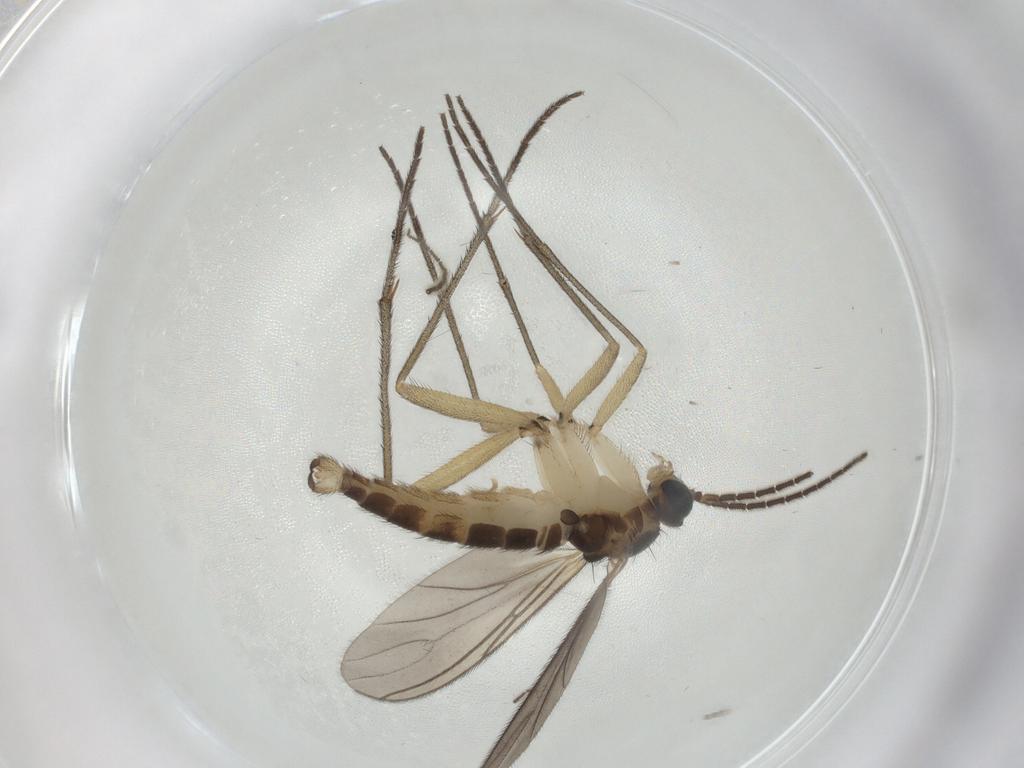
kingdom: Animalia
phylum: Arthropoda
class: Insecta
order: Diptera
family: Sciaridae
